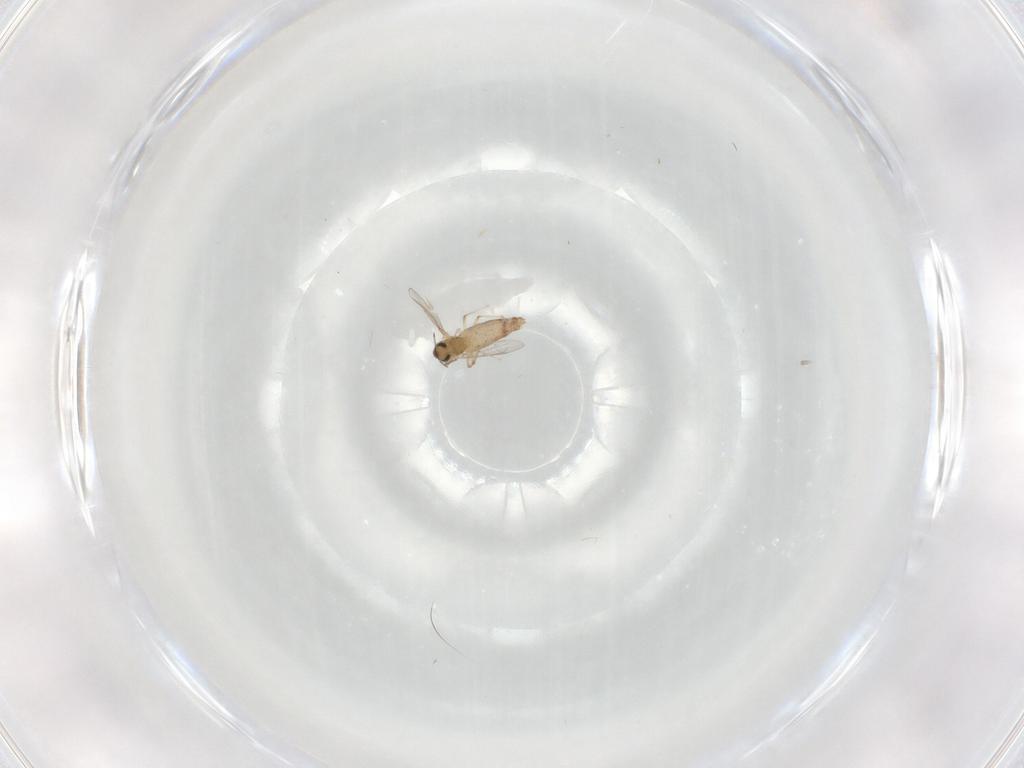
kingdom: Animalia
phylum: Arthropoda
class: Insecta
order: Diptera
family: Chironomidae
